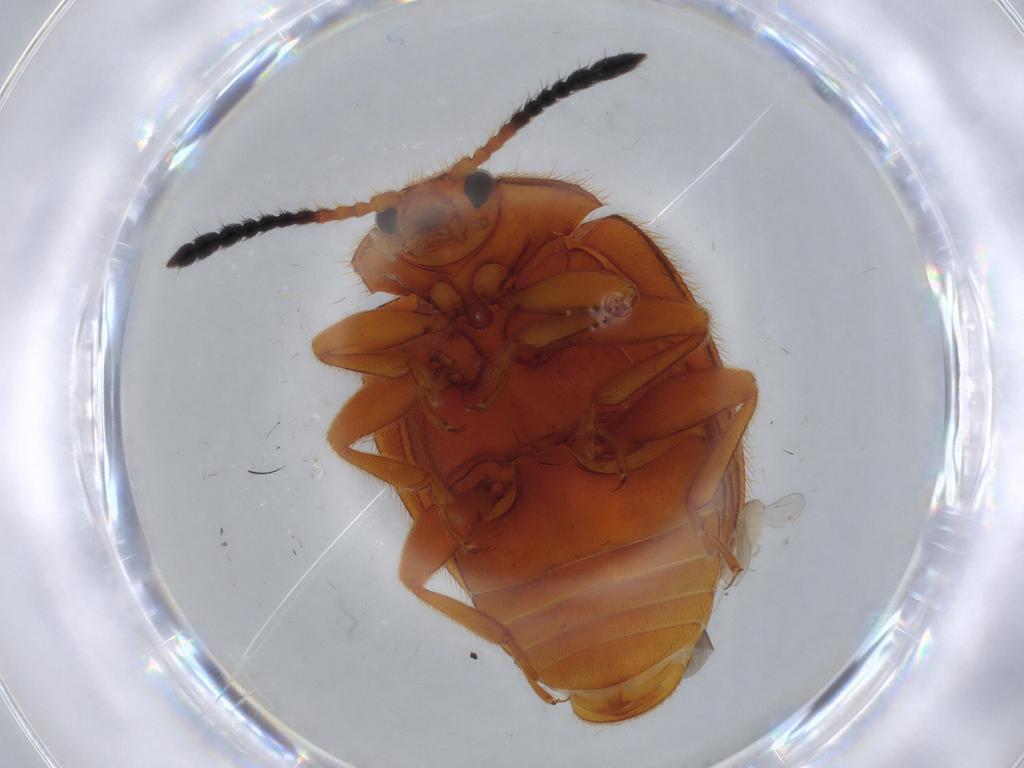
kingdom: Animalia
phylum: Arthropoda
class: Insecta
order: Coleoptera
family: Endomychidae
